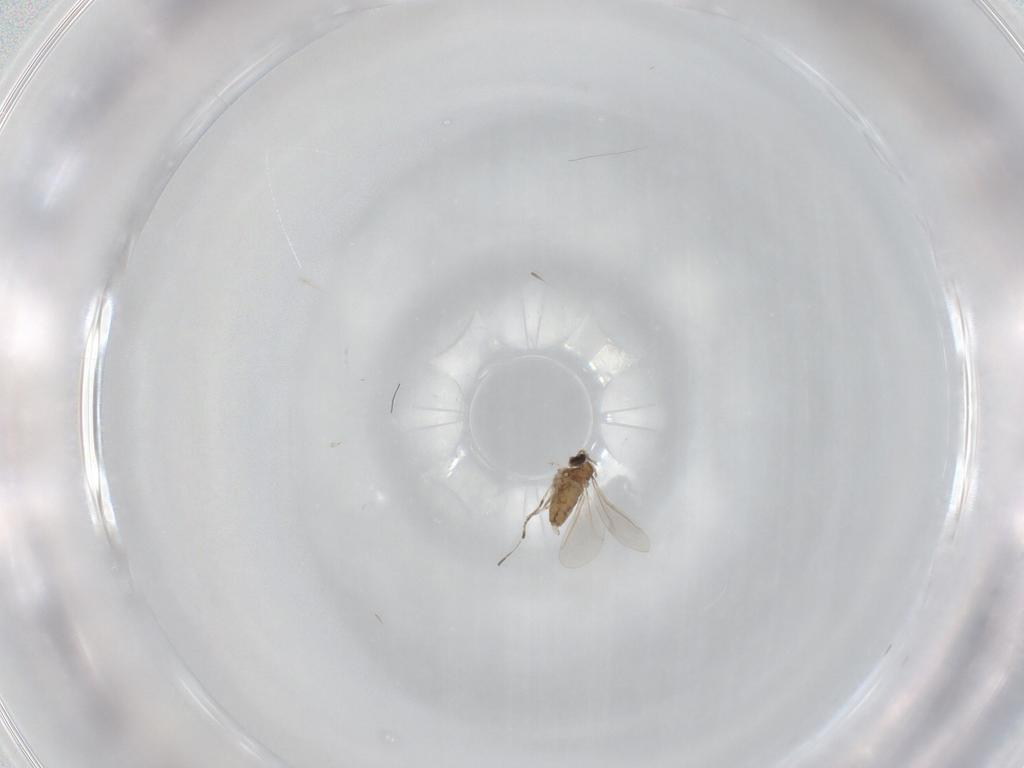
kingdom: Animalia
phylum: Arthropoda
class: Insecta
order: Diptera
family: Cecidomyiidae
